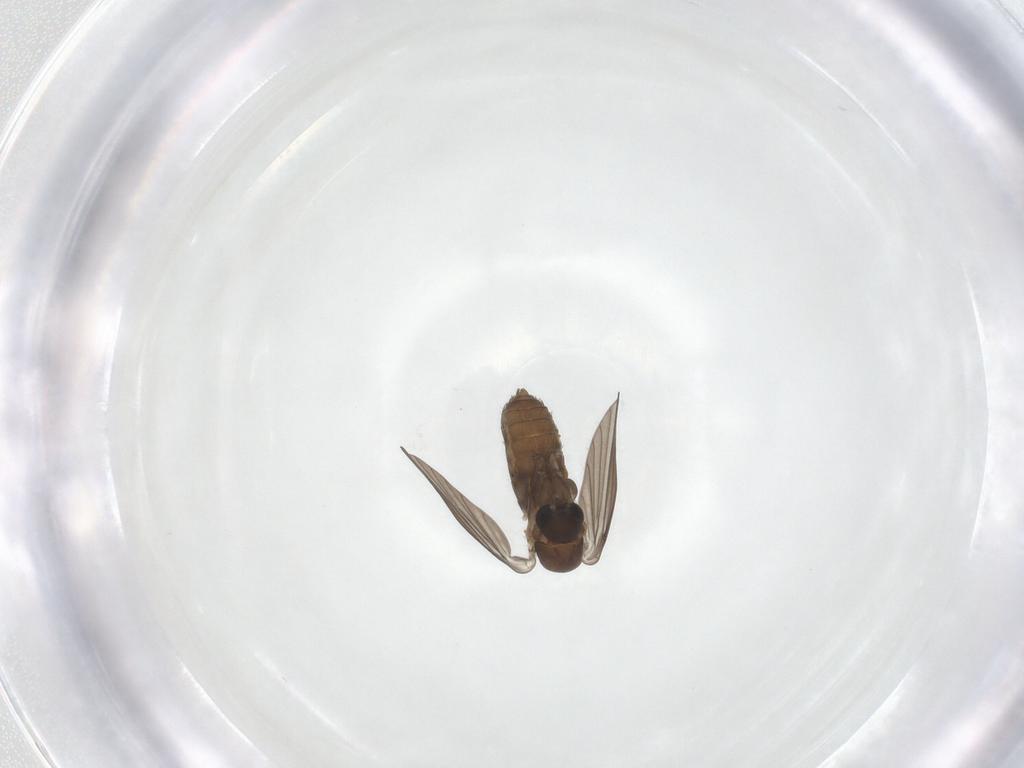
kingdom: Animalia
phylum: Arthropoda
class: Insecta
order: Diptera
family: Psychodidae
